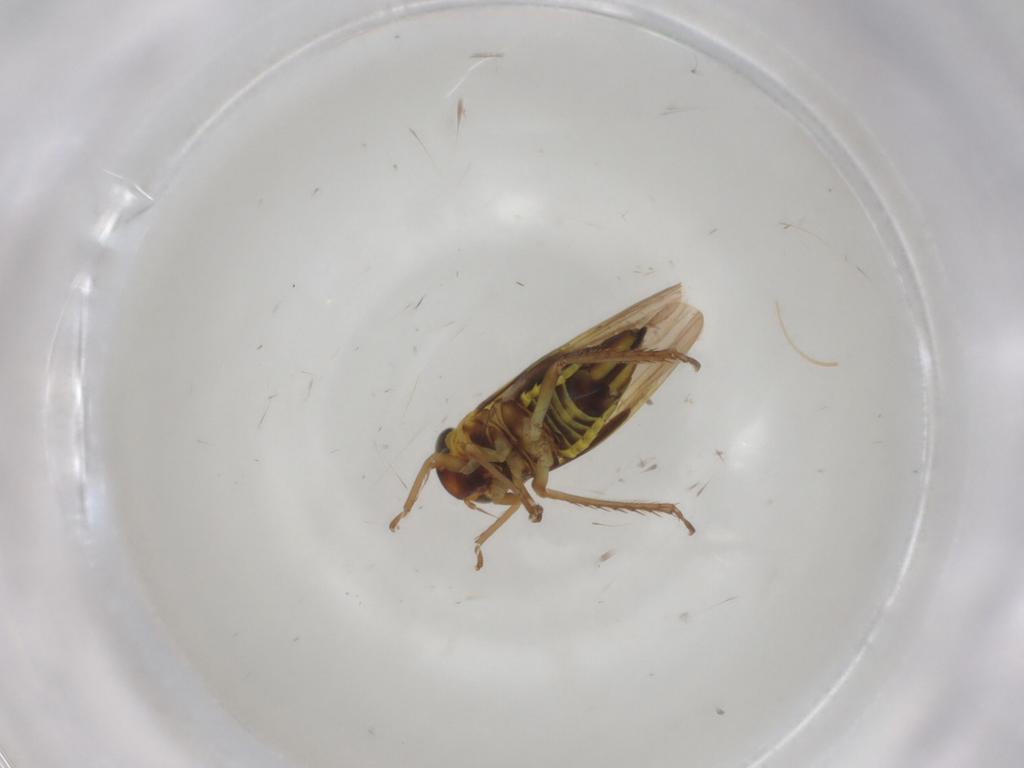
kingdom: Animalia
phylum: Arthropoda
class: Insecta
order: Hemiptera
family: Cicadellidae
